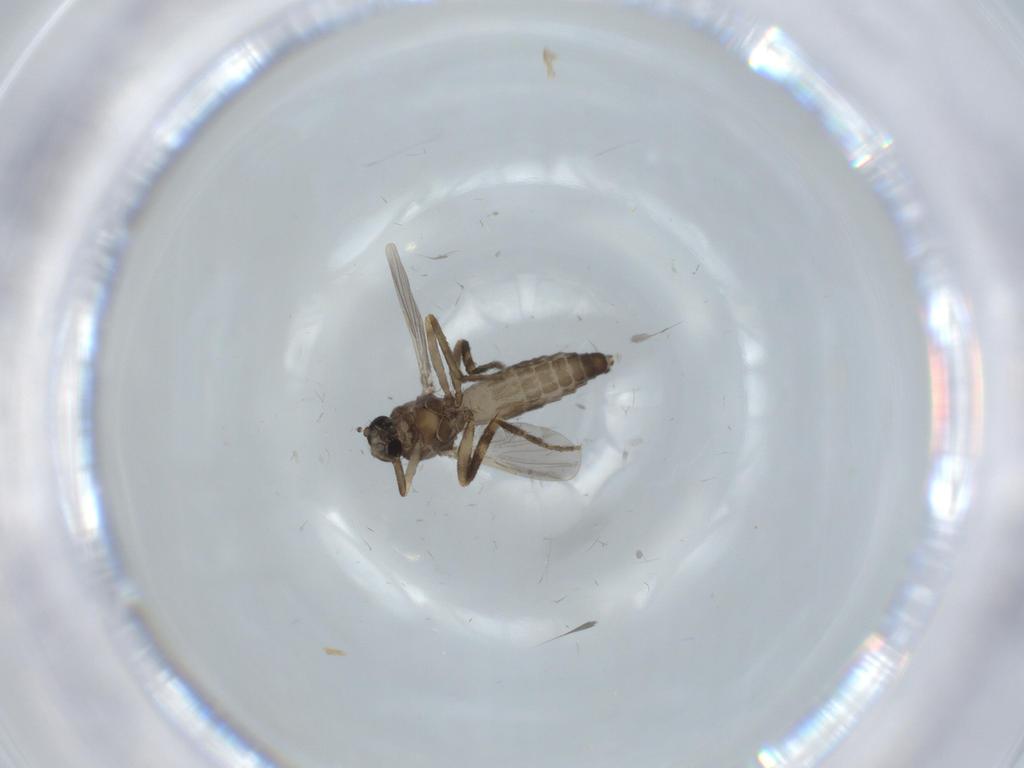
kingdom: Animalia
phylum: Arthropoda
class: Insecta
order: Diptera
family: Ceratopogonidae
